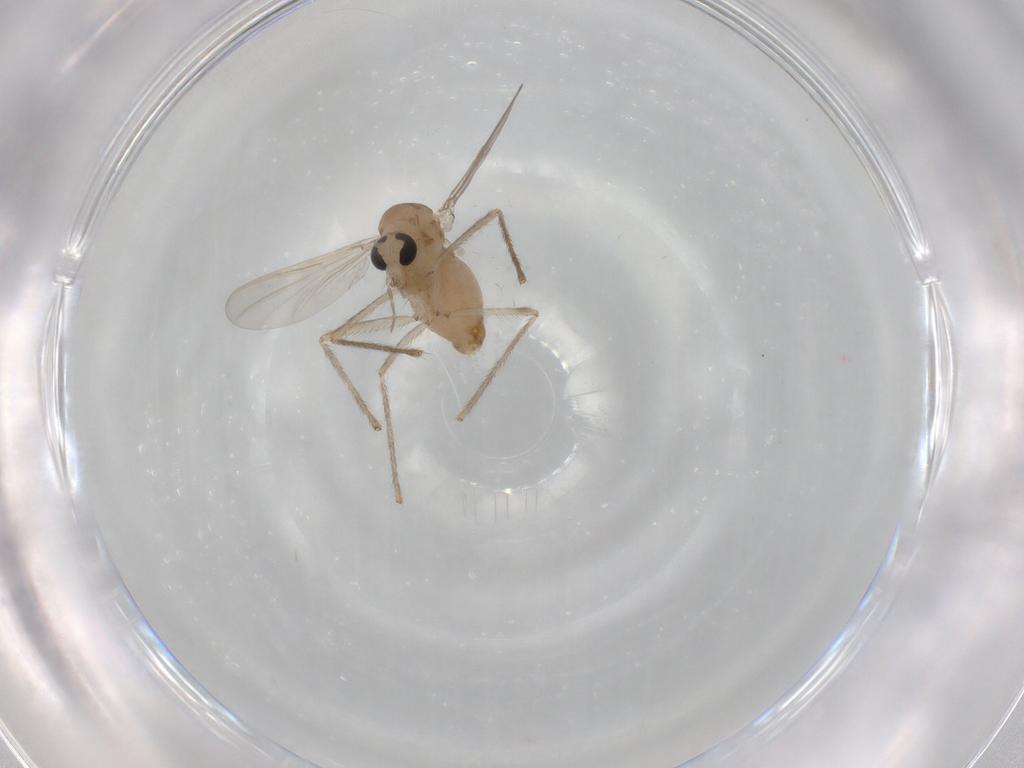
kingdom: Animalia
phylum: Arthropoda
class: Insecta
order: Diptera
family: Chironomidae
